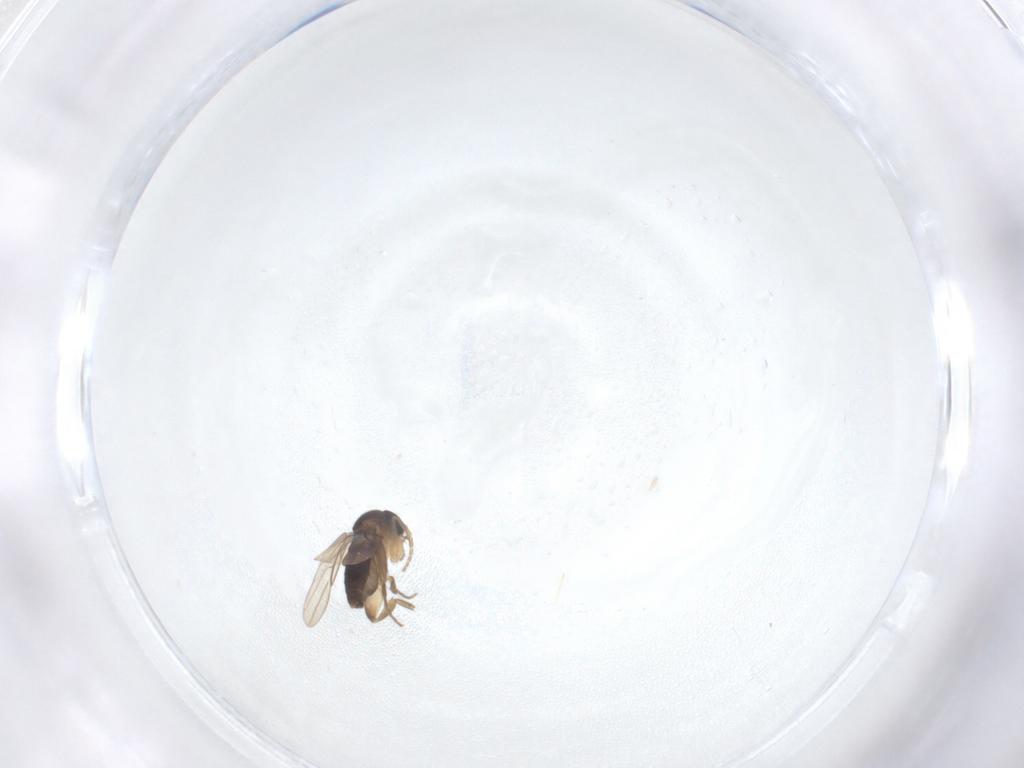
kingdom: Animalia
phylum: Arthropoda
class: Insecta
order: Diptera
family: Phoridae
